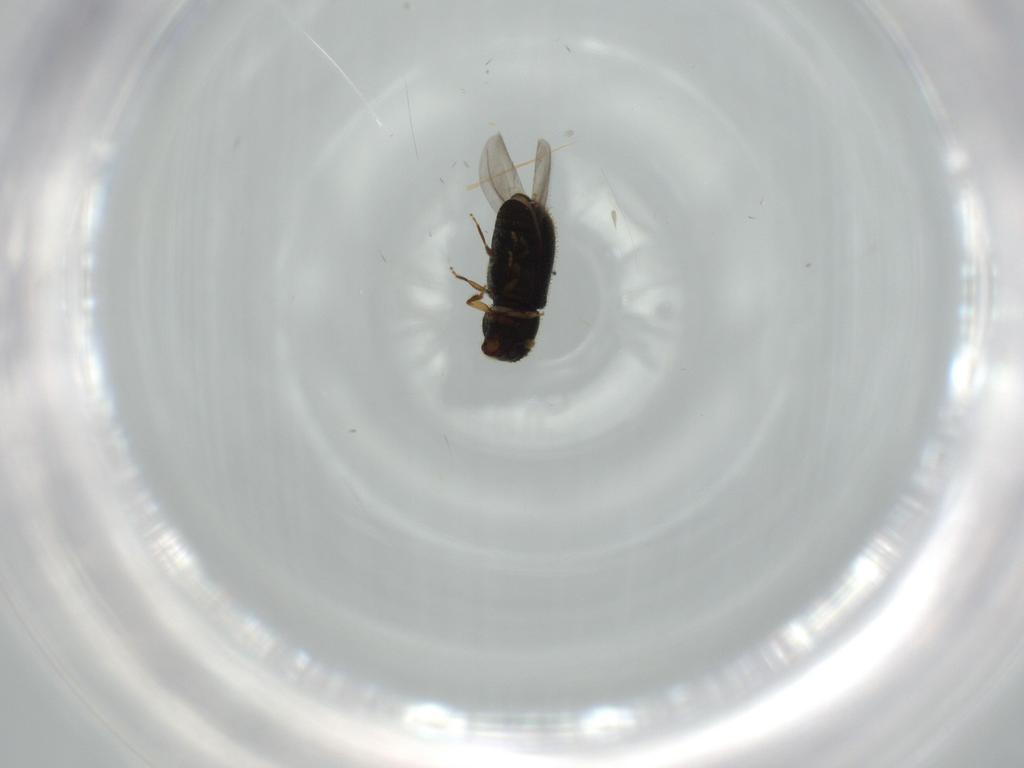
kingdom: Animalia
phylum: Arthropoda
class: Insecta
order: Coleoptera
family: Curculionidae
